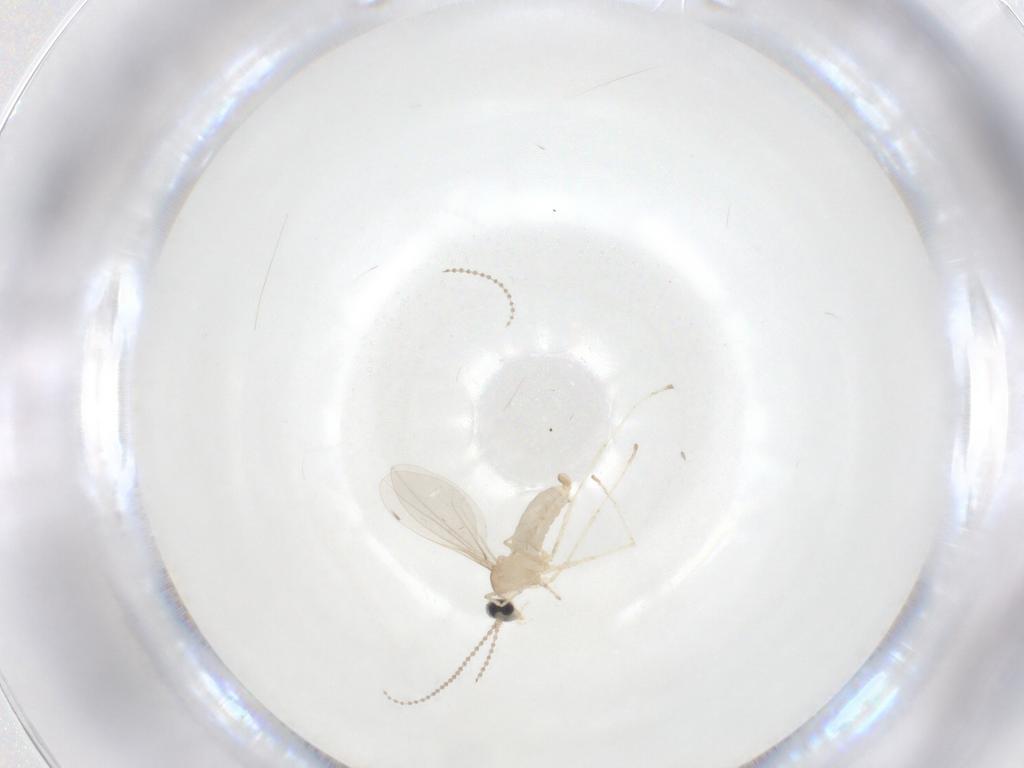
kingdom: Animalia
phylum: Arthropoda
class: Insecta
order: Diptera
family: Cecidomyiidae
